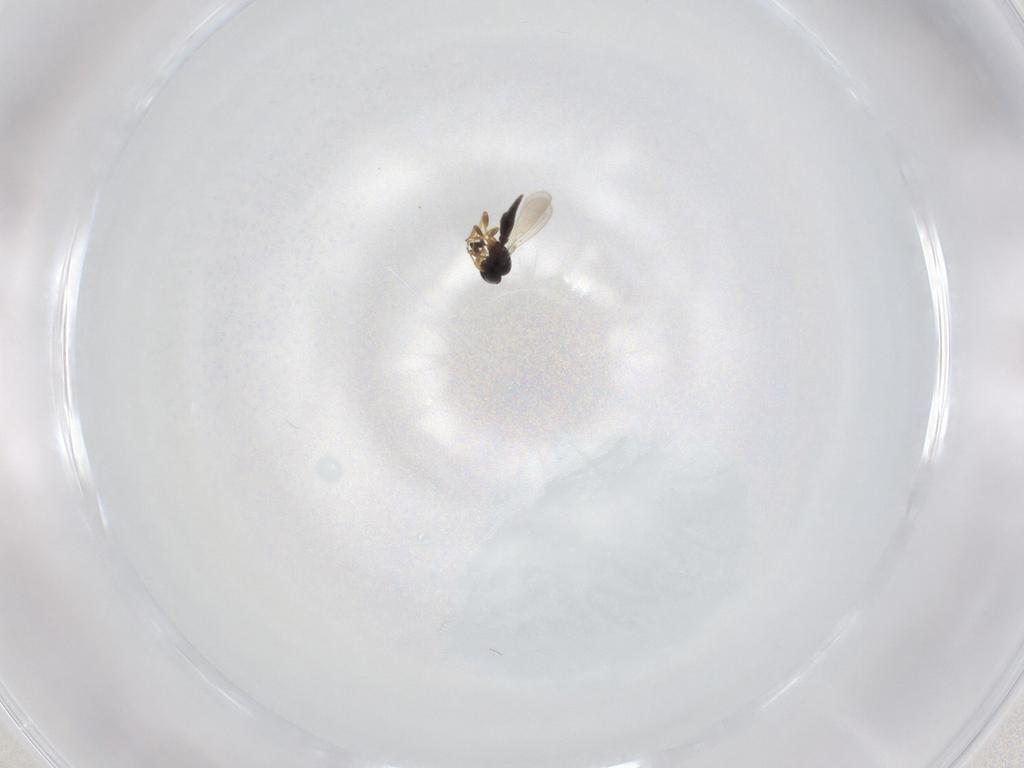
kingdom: Animalia
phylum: Arthropoda
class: Insecta
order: Hymenoptera
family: Platygastridae
